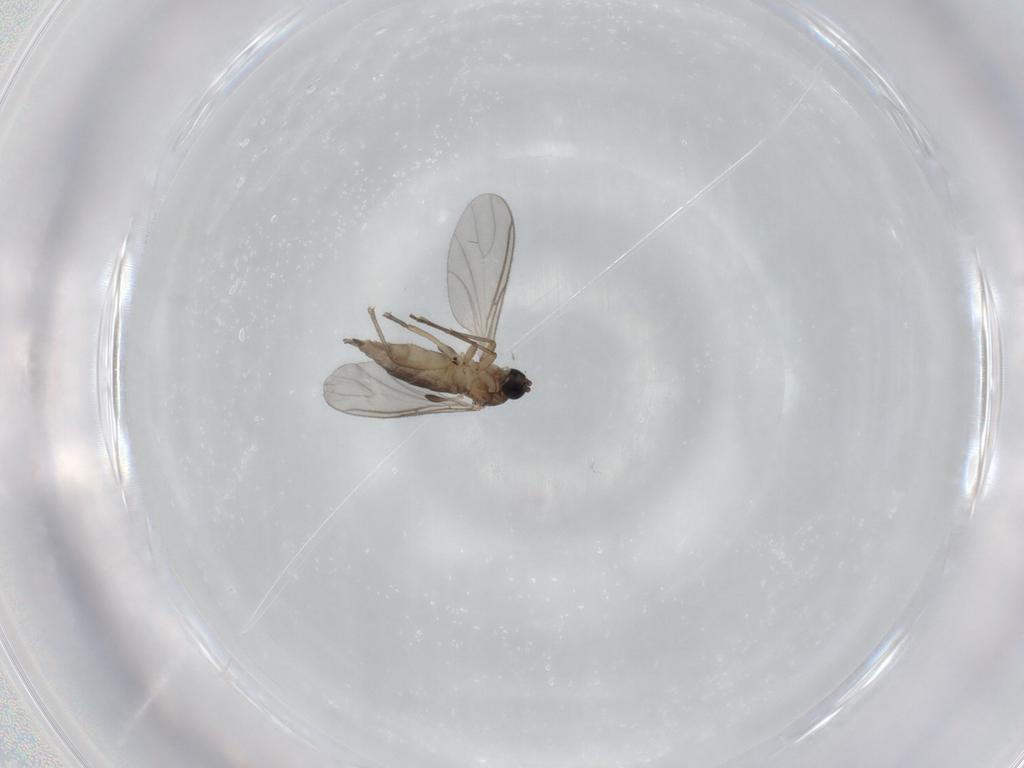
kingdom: Animalia
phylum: Arthropoda
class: Insecta
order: Diptera
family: Sciaridae
